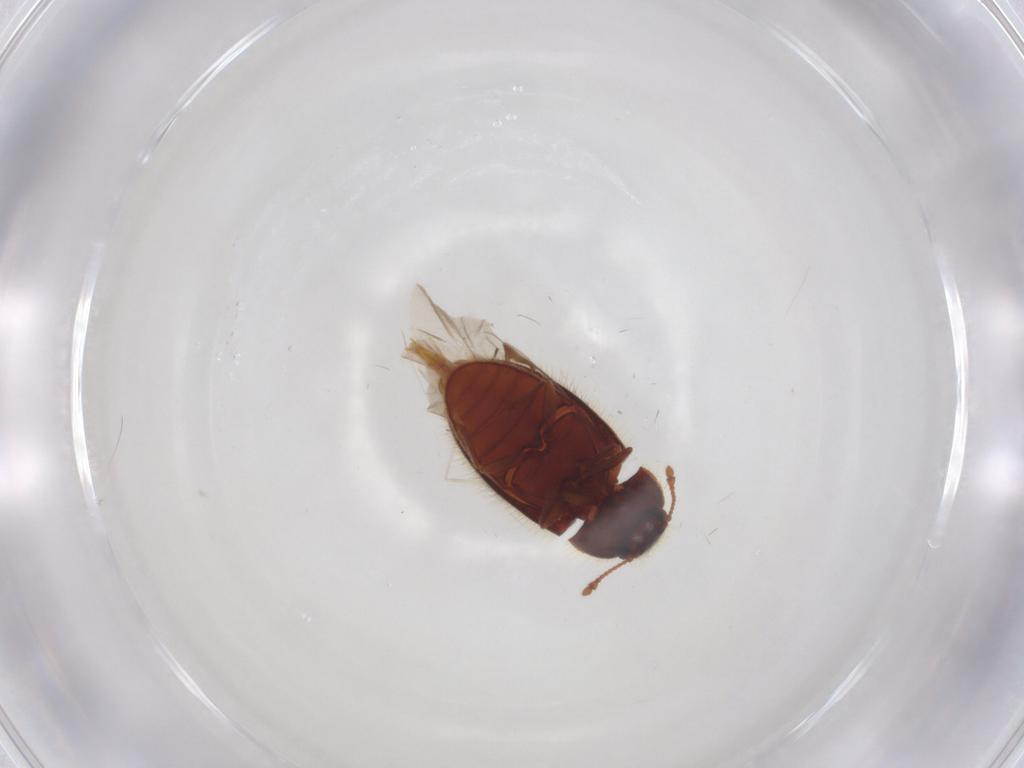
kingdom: Animalia
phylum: Arthropoda
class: Insecta
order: Coleoptera
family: Biphyllidae
